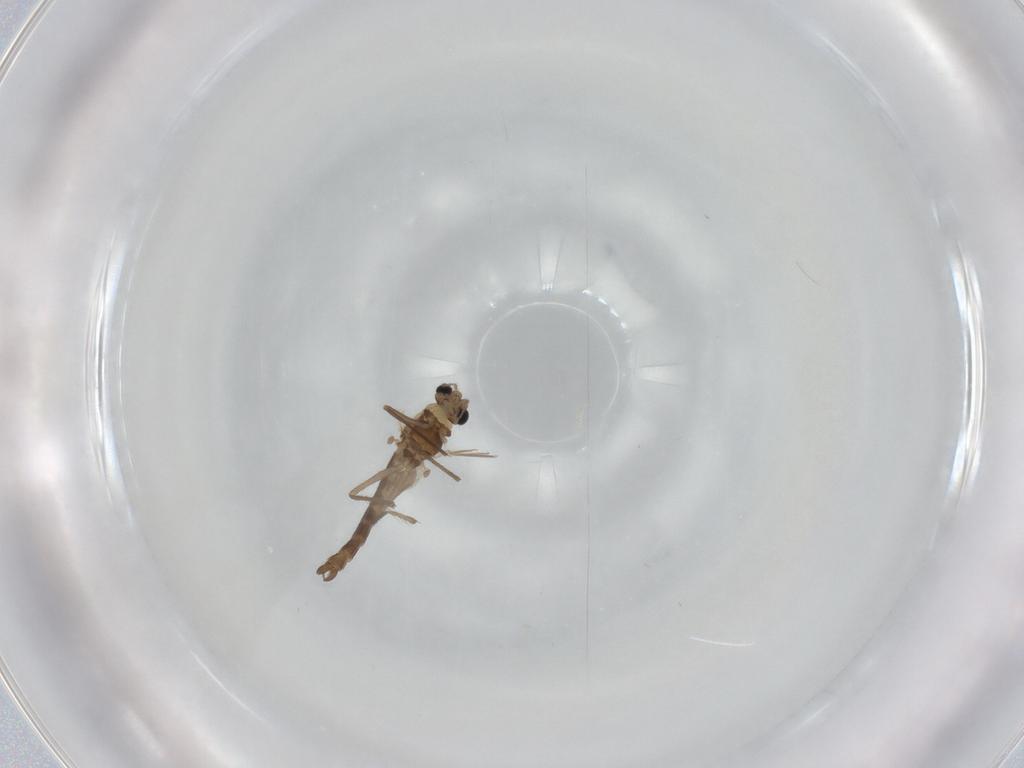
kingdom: Animalia
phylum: Arthropoda
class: Insecta
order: Diptera
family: Chironomidae
